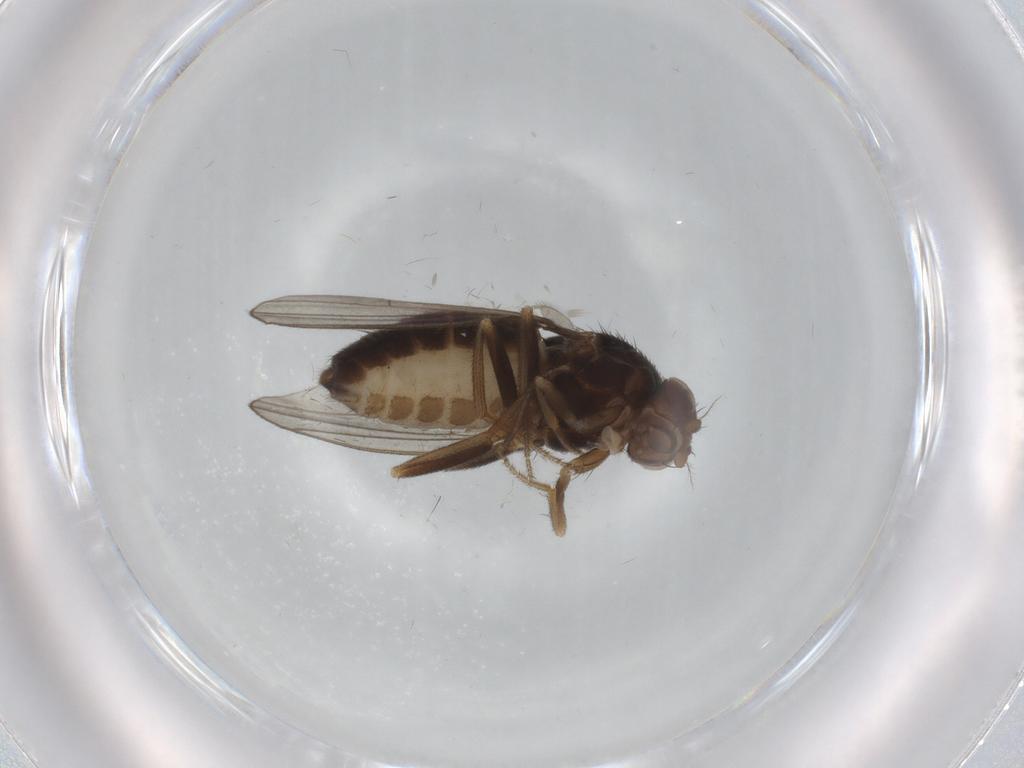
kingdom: Animalia
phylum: Arthropoda
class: Insecta
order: Diptera
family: Drosophilidae
